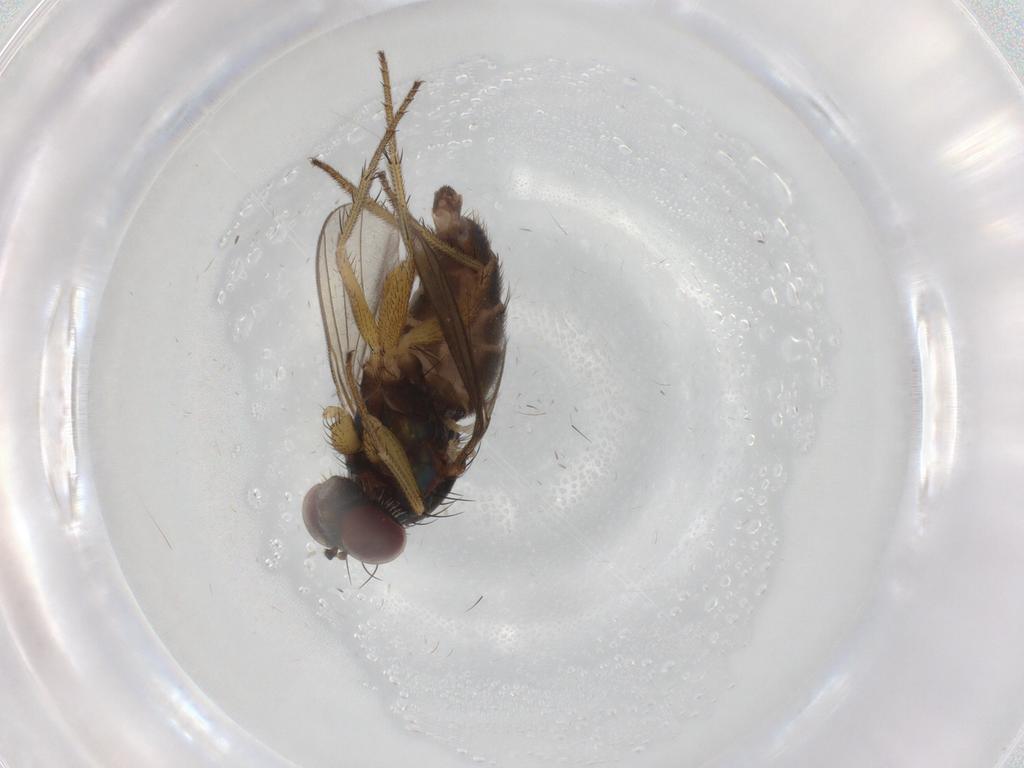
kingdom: Animalia
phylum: Arthropoda
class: Insecta
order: Diptera
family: Dolichopodidae
